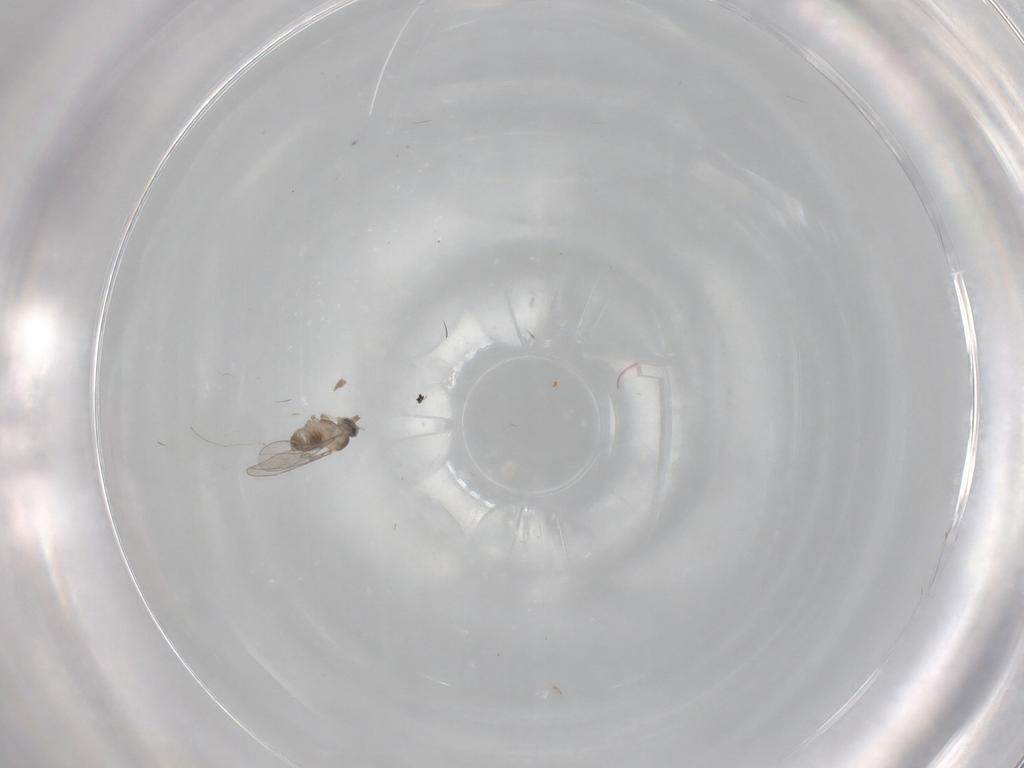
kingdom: Animalia
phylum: Arthropoda
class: Insecta
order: Diptera
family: Cecidomyiidae
